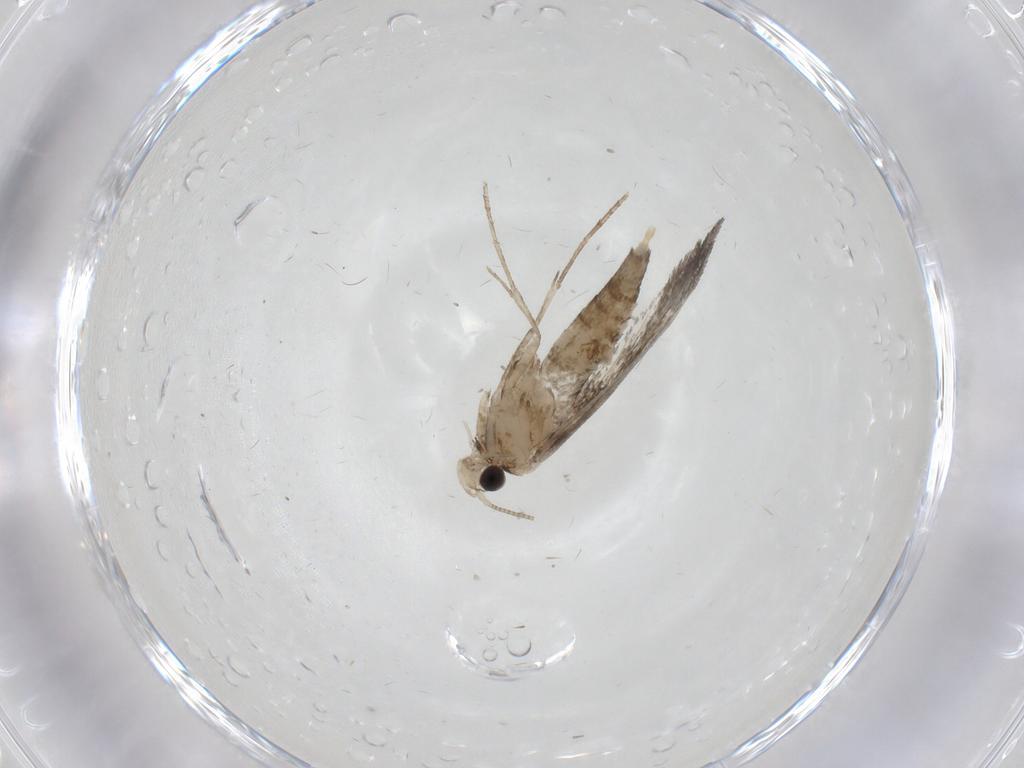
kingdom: Animalia
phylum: Arthropoda
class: Insecta
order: Lepidoptera
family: Nymphalidae
